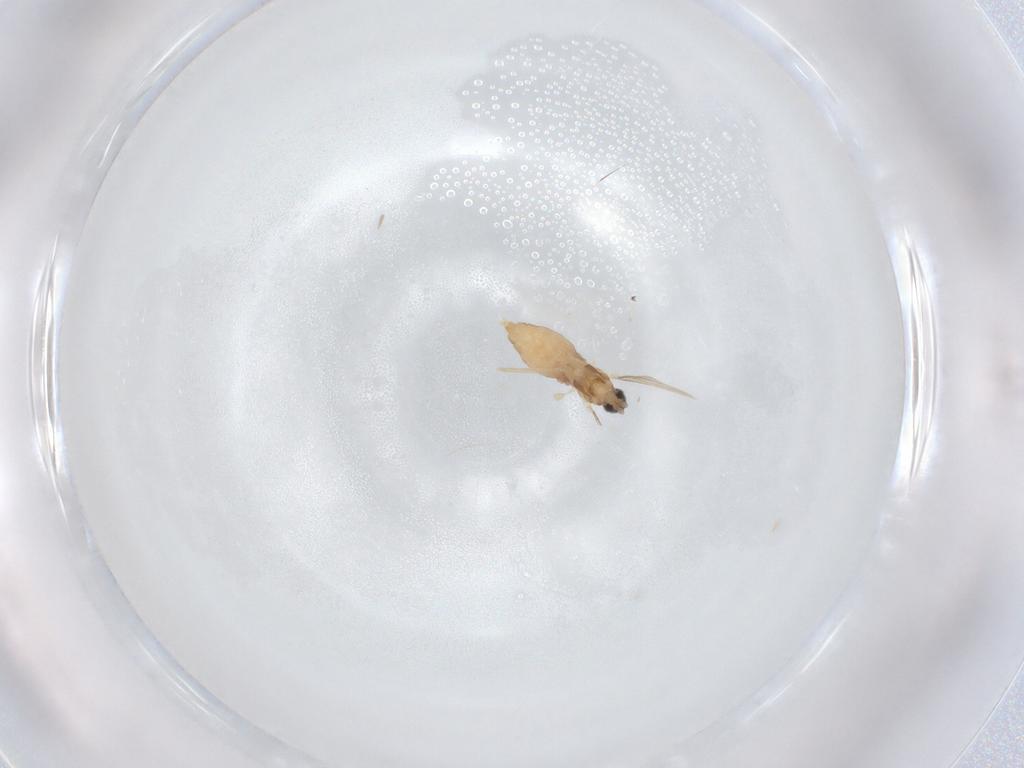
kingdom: Animalia
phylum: Arthropoda
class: Insecta
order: Diptera
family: Cecidomyiidae
